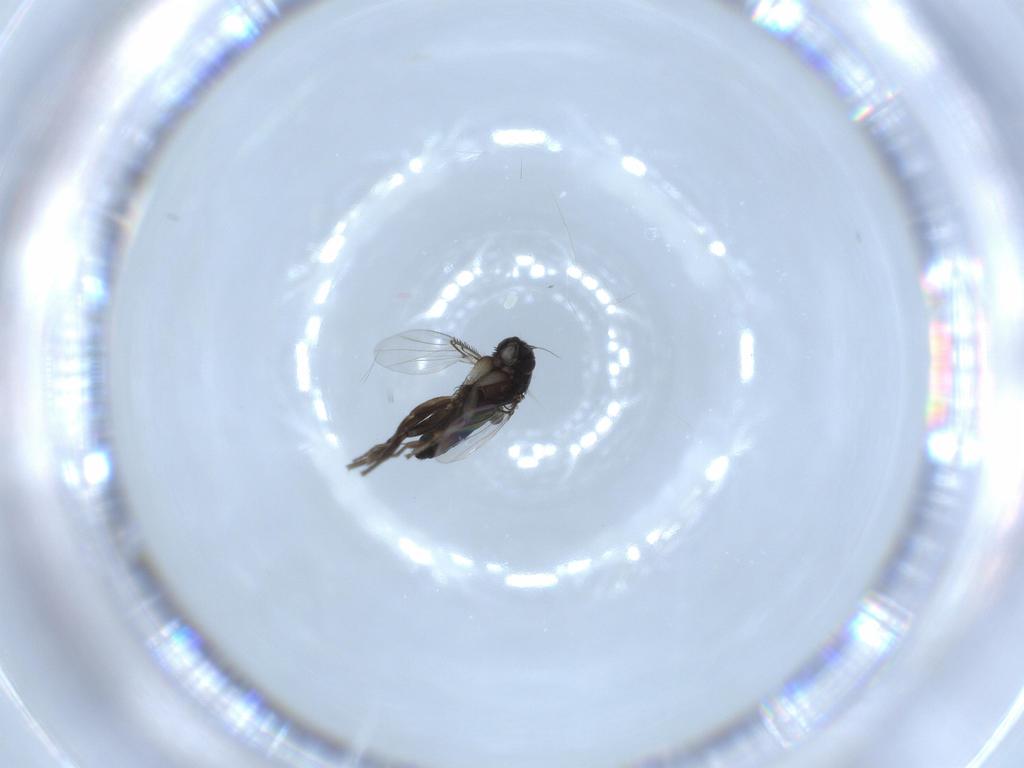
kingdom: Animalia
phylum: Arthropoda
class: Insecta
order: Diptera
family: Phoridae
